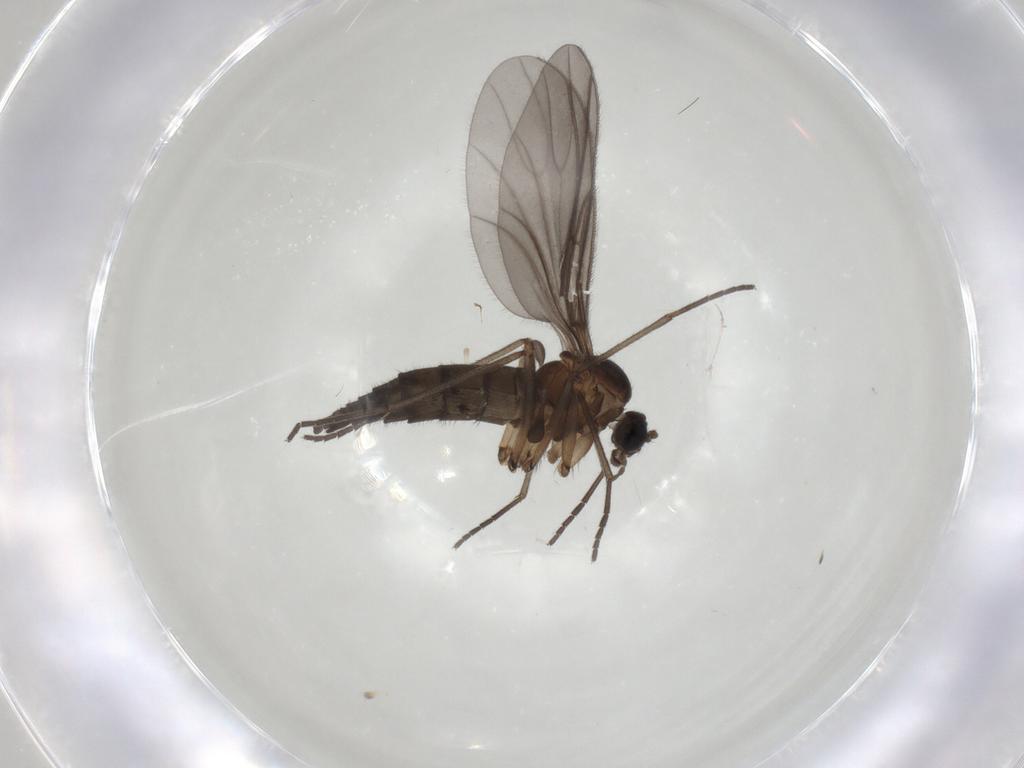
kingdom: Animalia
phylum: Arthropoda
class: Insecta
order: Diptera
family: Sciaridae
